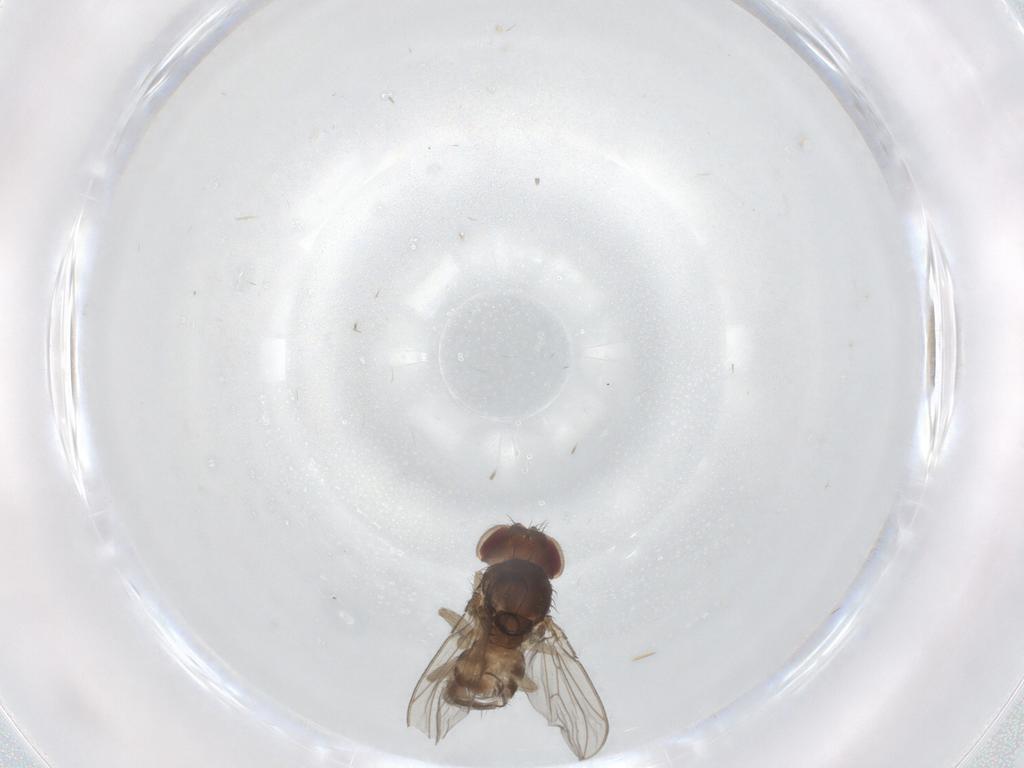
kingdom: Animalia
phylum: Arthropoda
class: Insecta
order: Diptera
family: Drosophilidae
